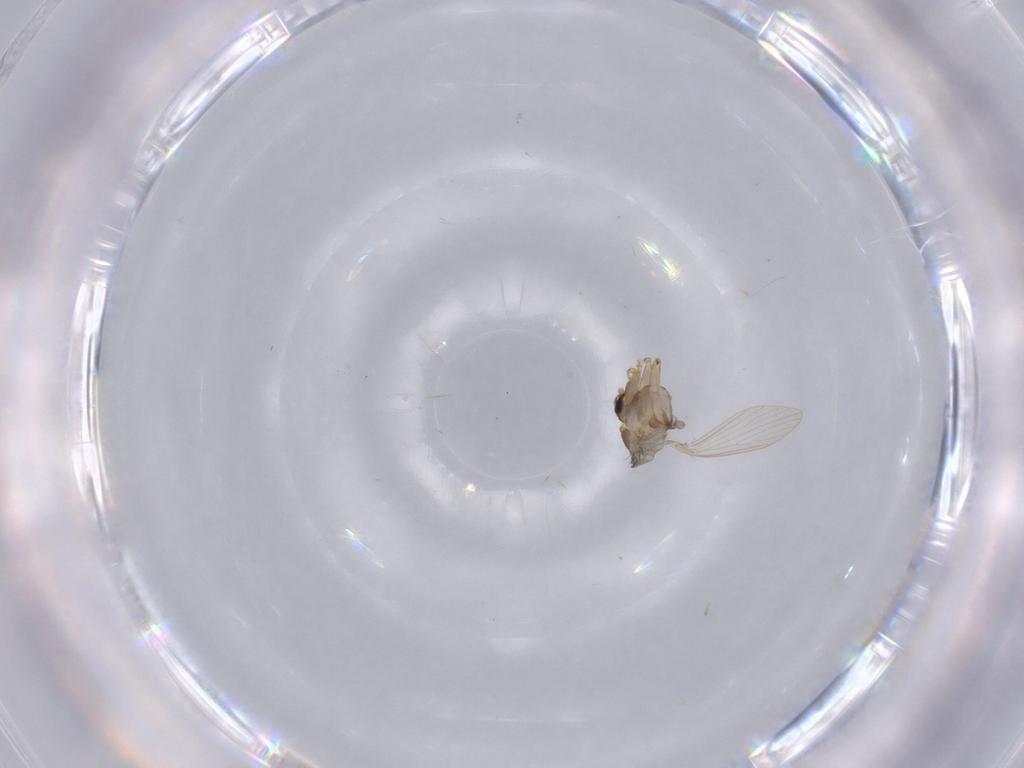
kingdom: Animalia
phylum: Arthropoda
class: Insecta
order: Diptera
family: Psychodidae
